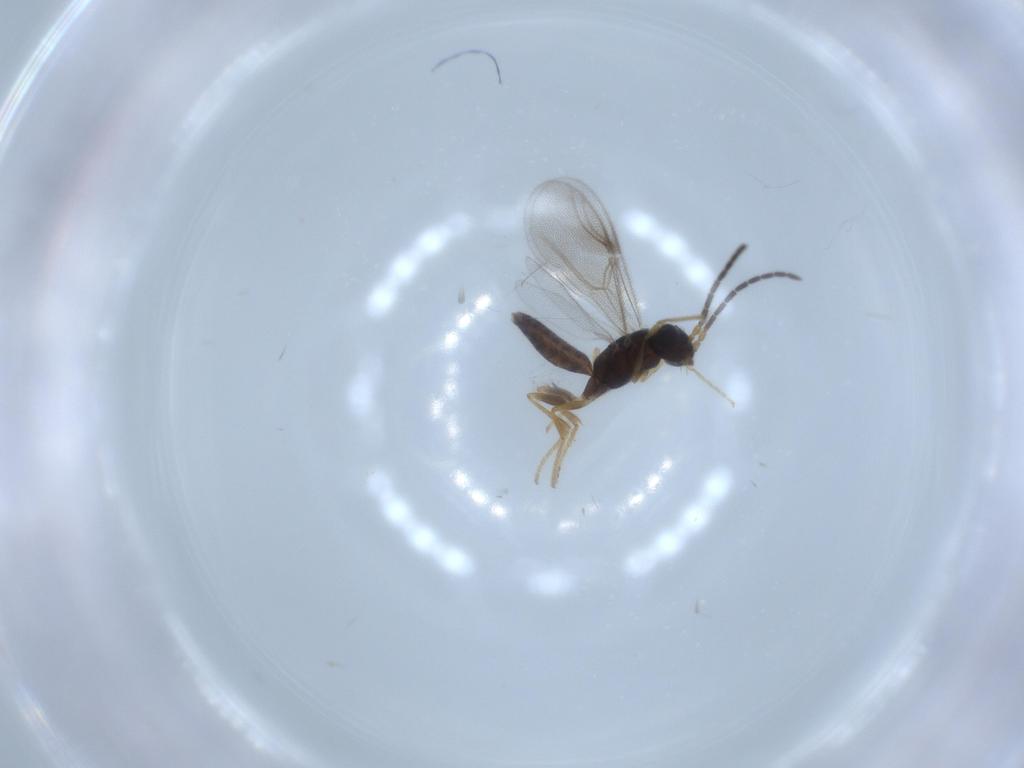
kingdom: Animalia
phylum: Arthropoda
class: Insecta
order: Hymenoptera
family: Dryinidae
